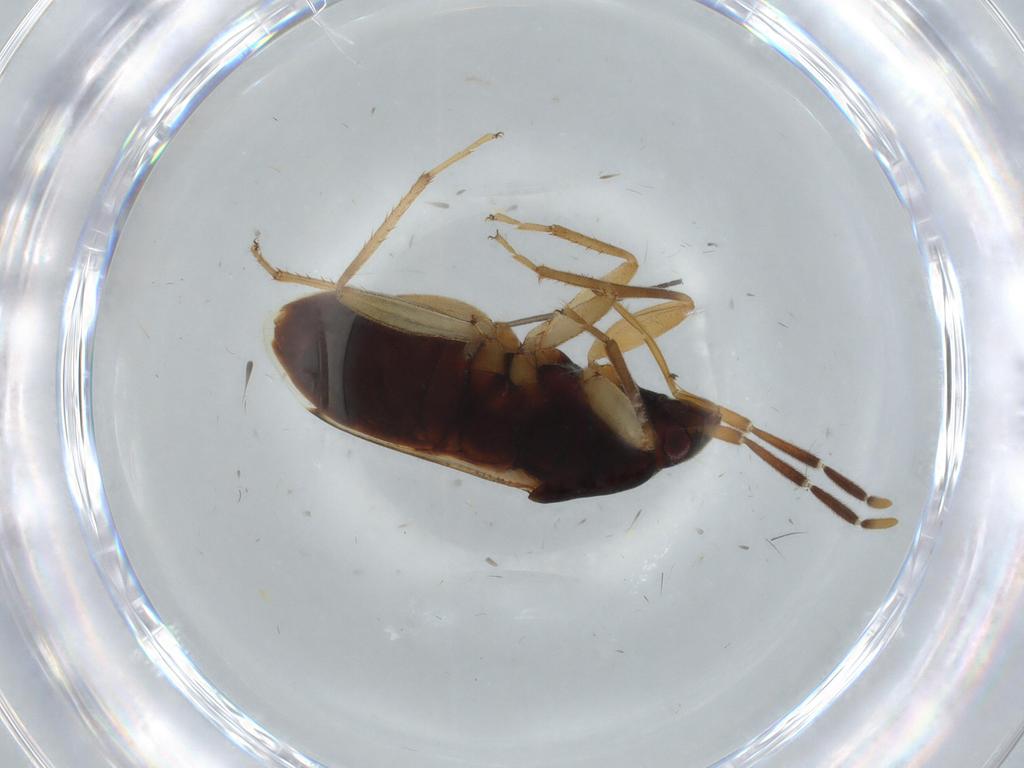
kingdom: Animalia
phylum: Arthropoda
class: Insecta
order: Hemiptera
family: Rhyparochromidae
